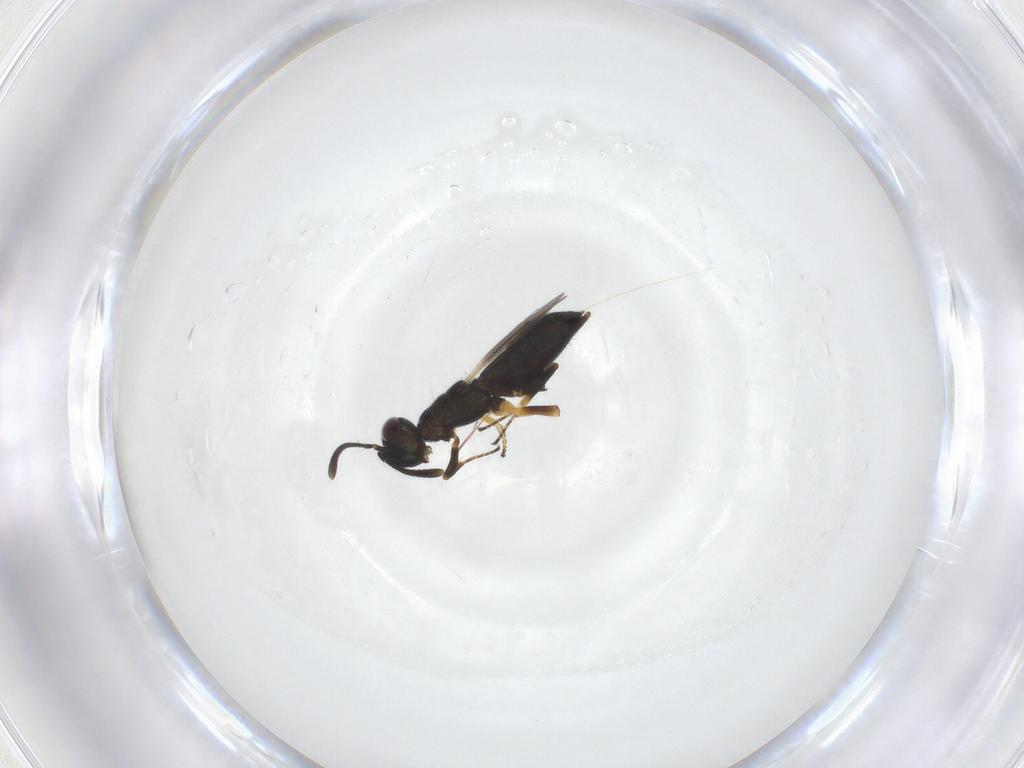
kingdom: Animalia
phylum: Arthropoda
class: Insecta
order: Hymenoptera
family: Eupelmidae
